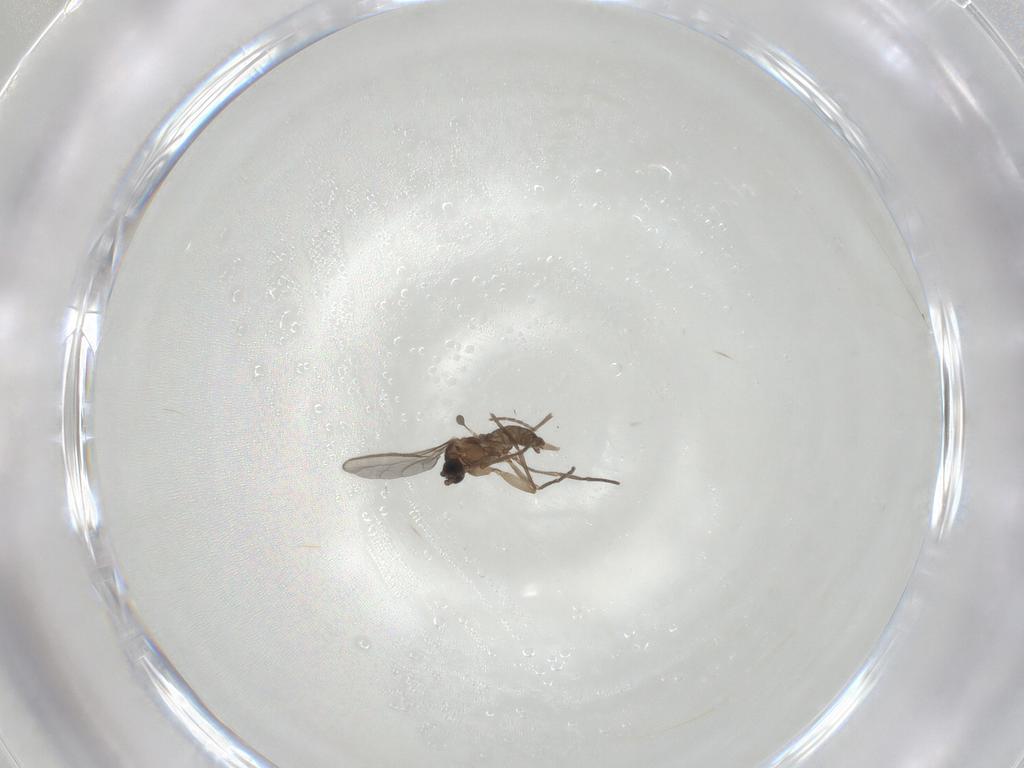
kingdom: Animalia
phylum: Arthropoda
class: Insecta
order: Diptera
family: Sciaridae
